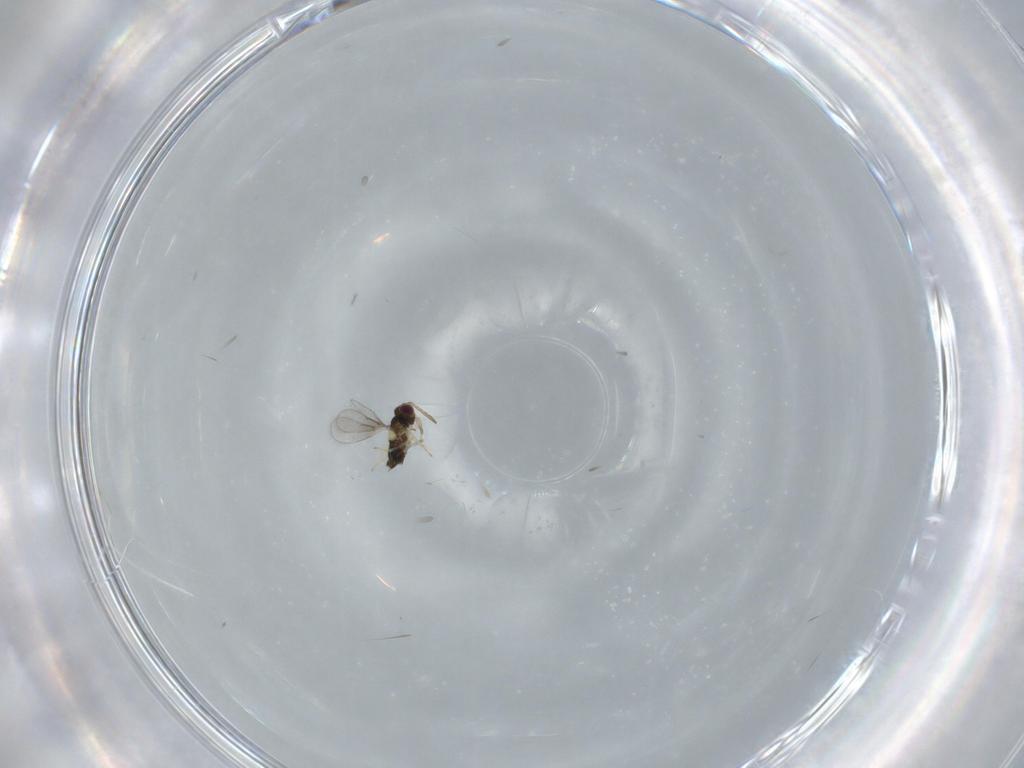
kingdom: Animalia
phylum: Arthropoda
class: Insecta
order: Hymenoptera
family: Aphelinidae
